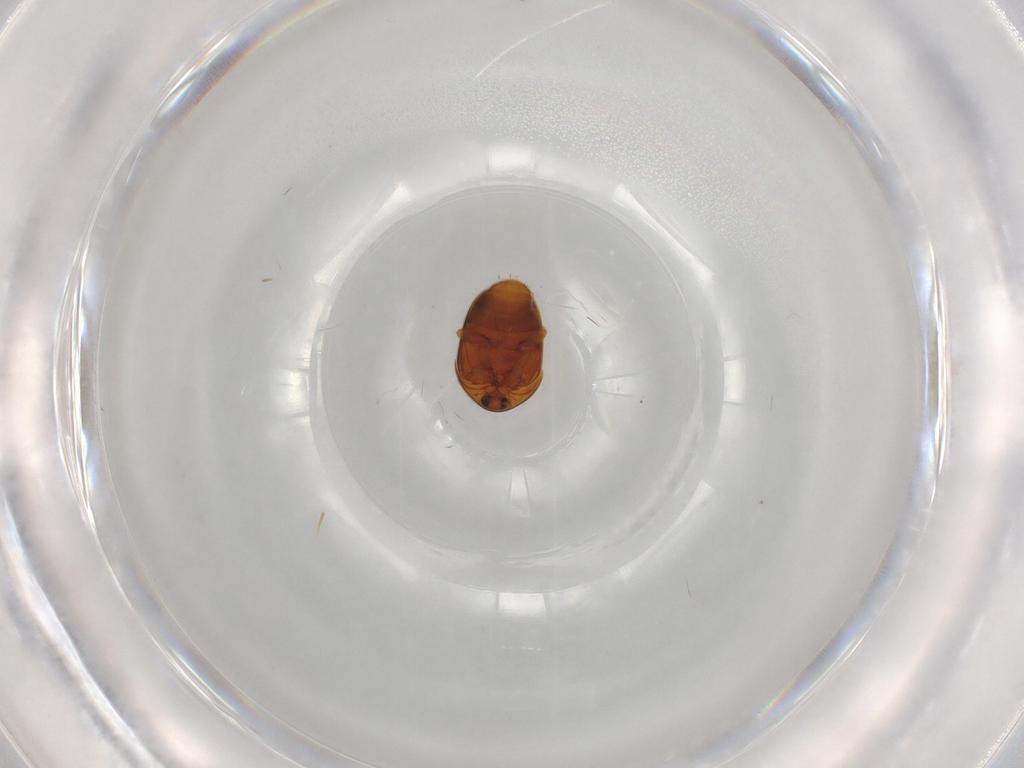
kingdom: Animalia
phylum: Arthropoda
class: Insecta
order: Coleoptera
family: Corylophidae
